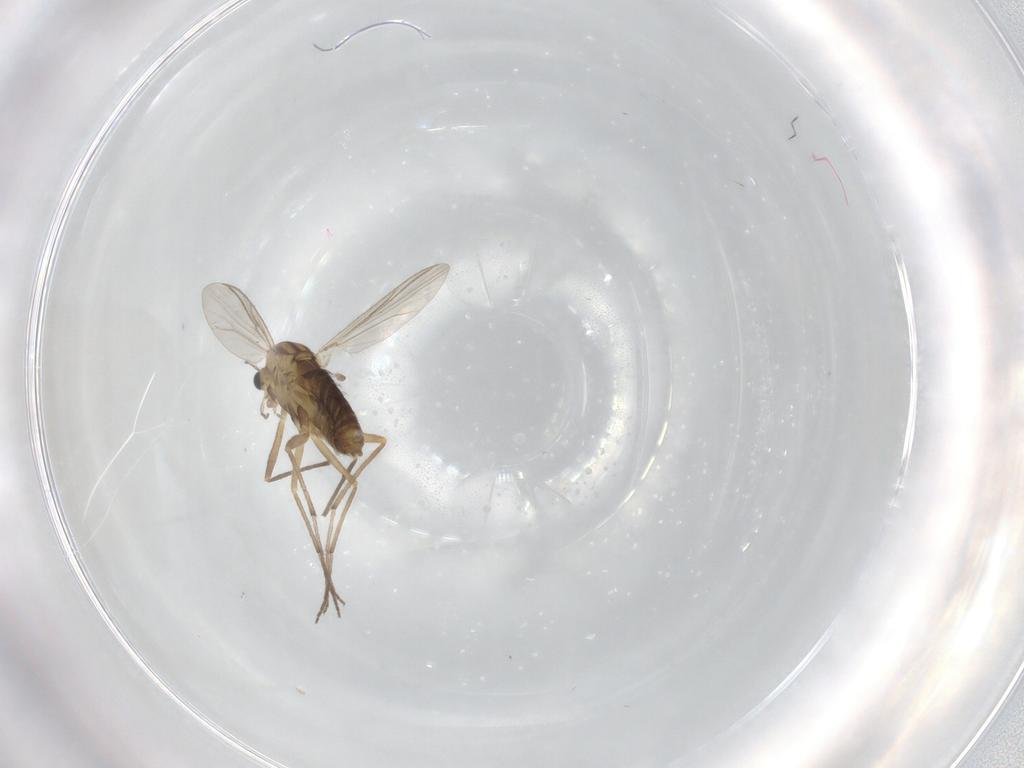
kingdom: Animalia
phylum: Arthropoda
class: Insecta
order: Diptera
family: Chironomidae
